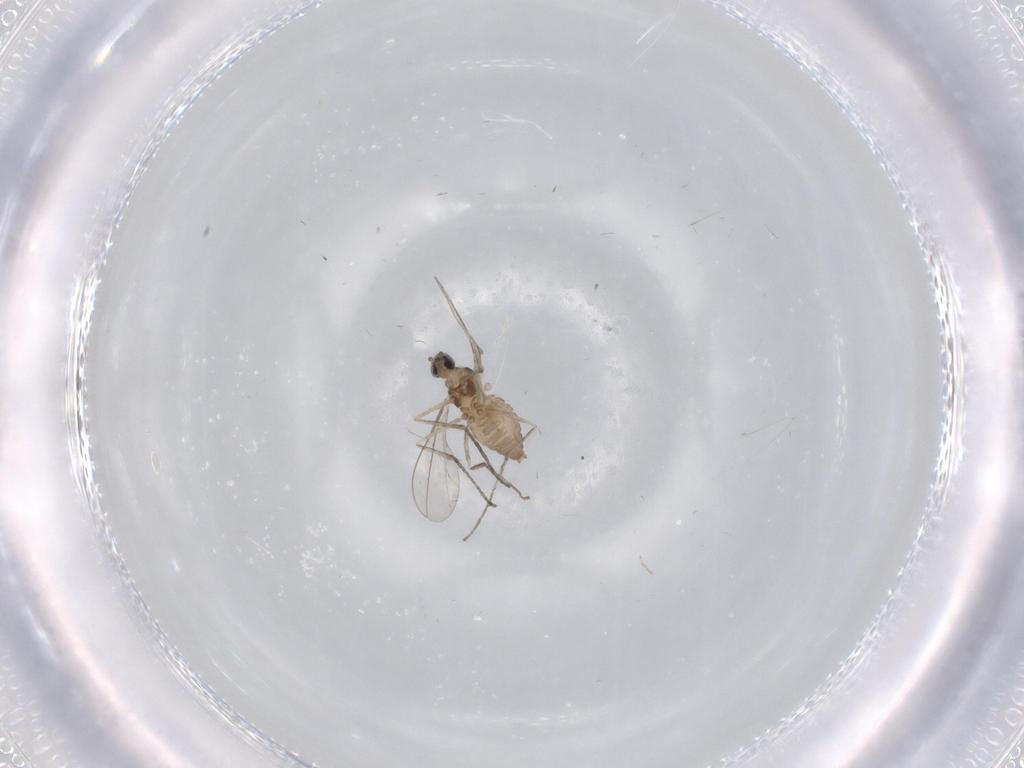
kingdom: Animalia
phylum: Arthropoda
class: Insecta
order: Diptera
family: Cecidomyiidae
